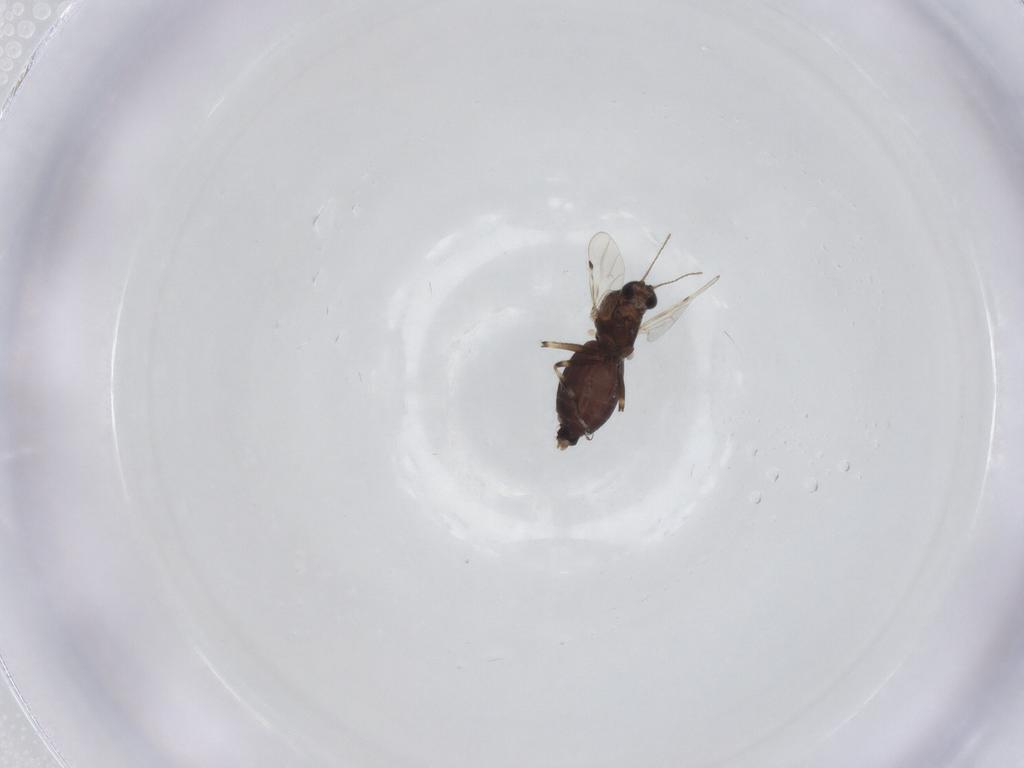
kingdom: Animalia
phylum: Arthropoda
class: Insecta
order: Diptera
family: Ceratopogonidae
